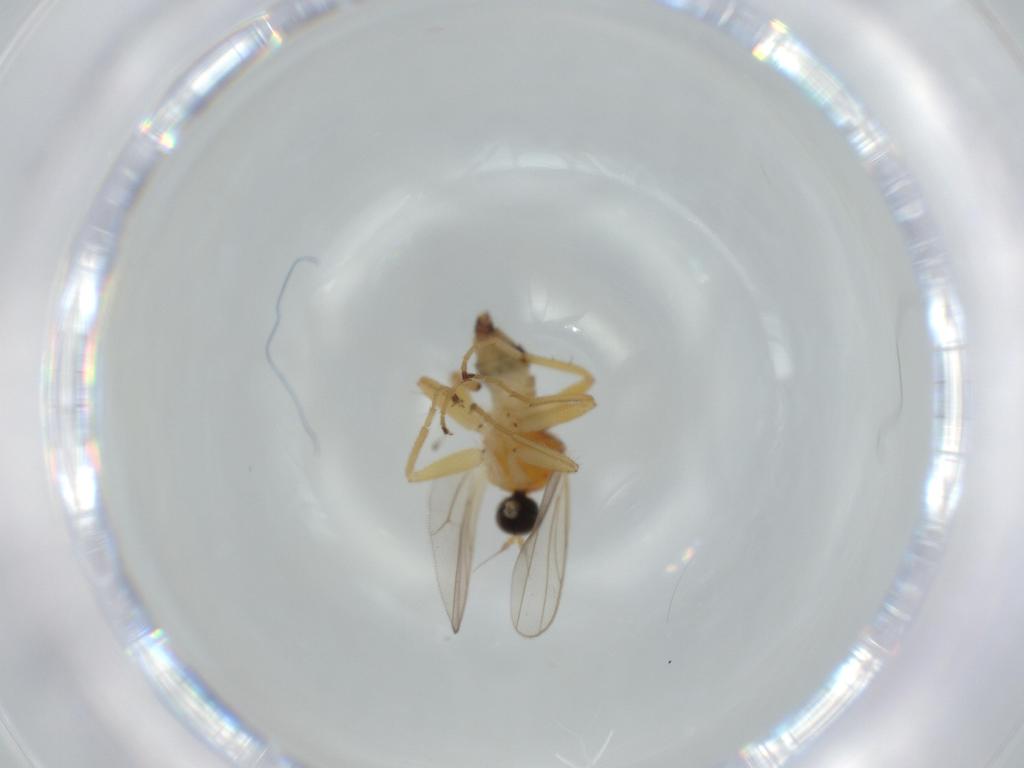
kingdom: Animalia
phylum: Arthropoda
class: Insecta
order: Diptera
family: Hybotidae
